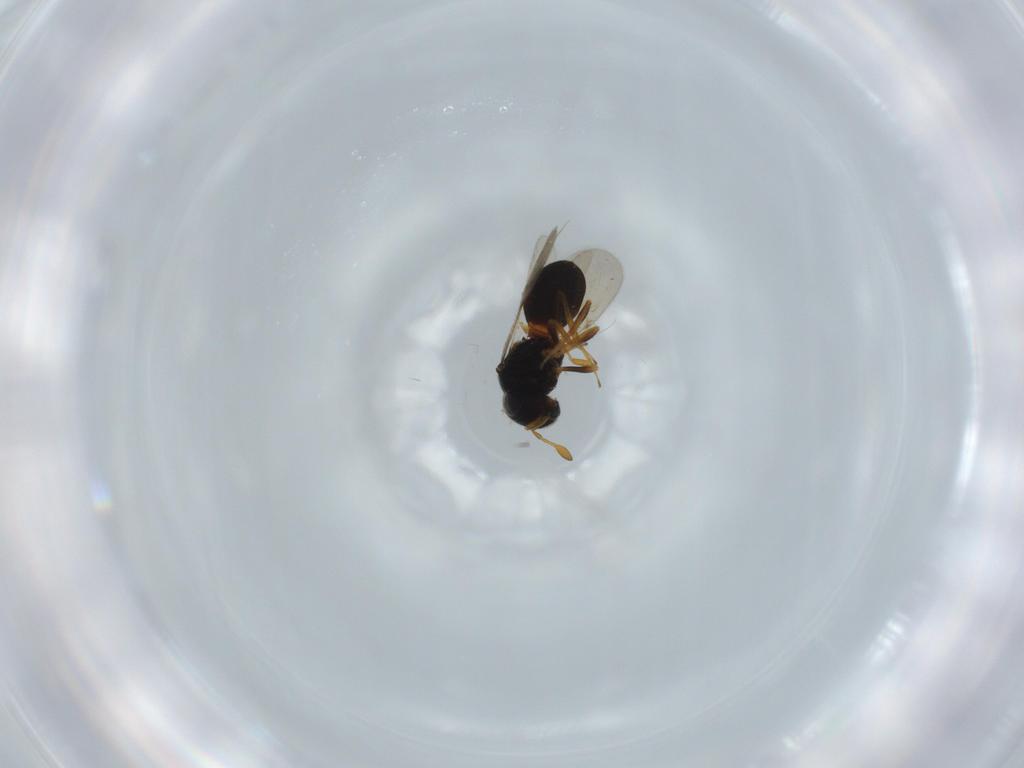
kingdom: Animalia
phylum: Arthropoda
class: Insecta
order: Hymenoptera
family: Scelionidae
